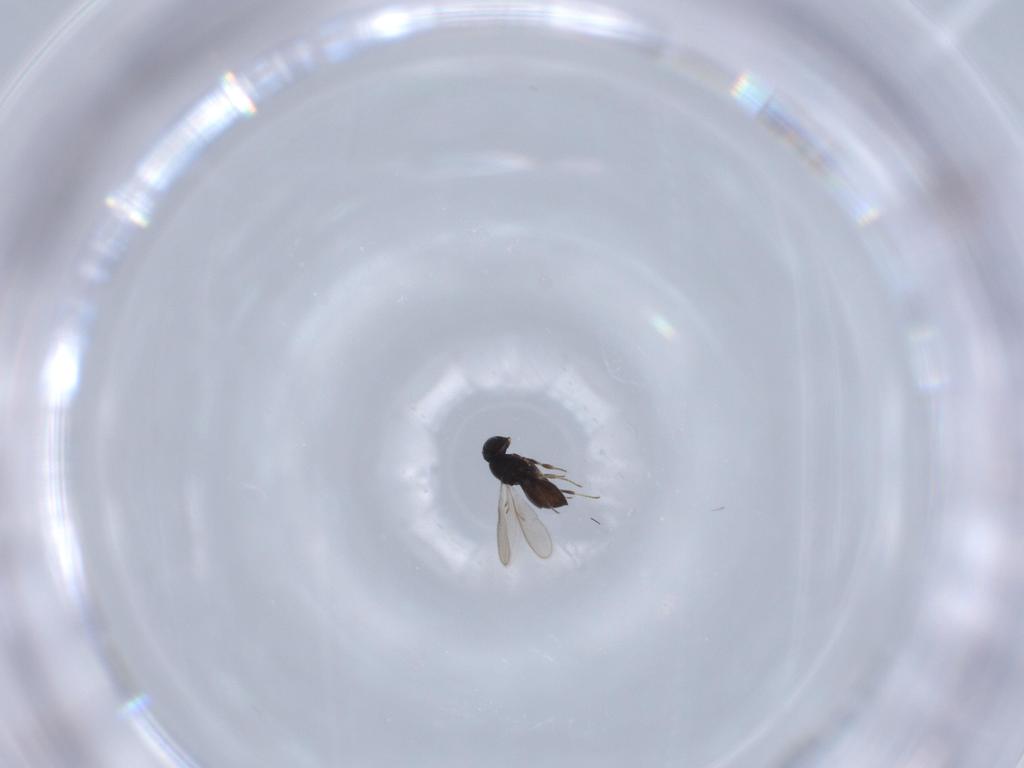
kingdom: Animalia
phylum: Arthropoda
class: Insecta
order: Hymenoptera
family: Scelionidae
